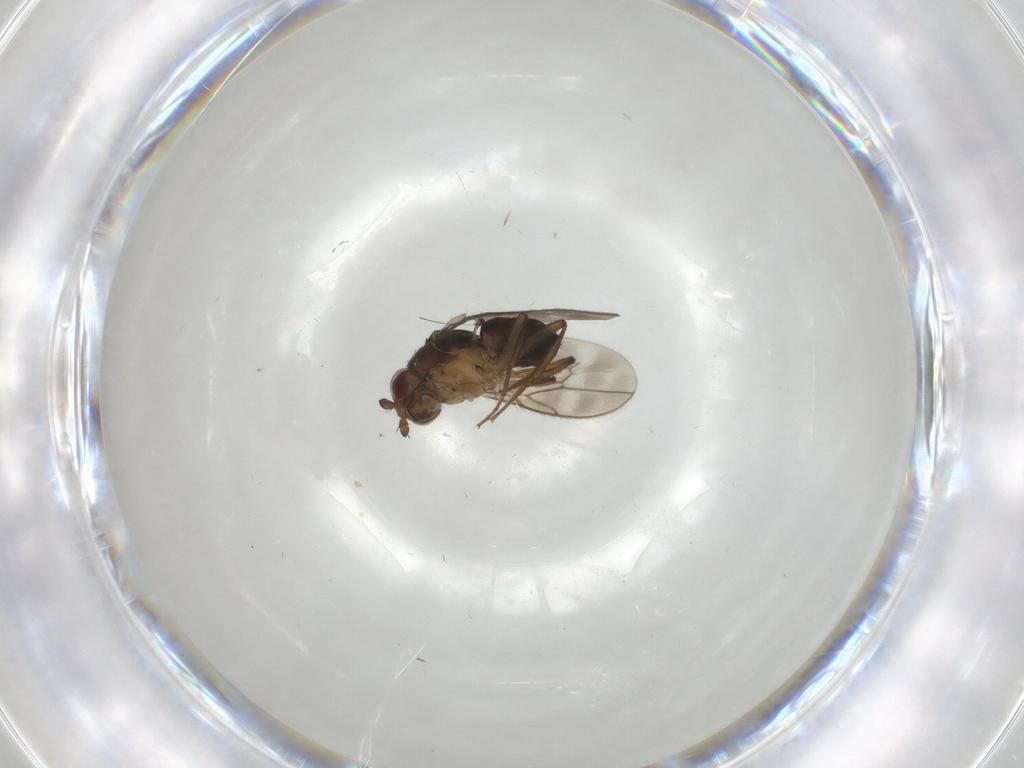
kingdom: Animalia
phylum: Arthropoda
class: Insecta
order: Diptera
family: Sphaeroceridae
